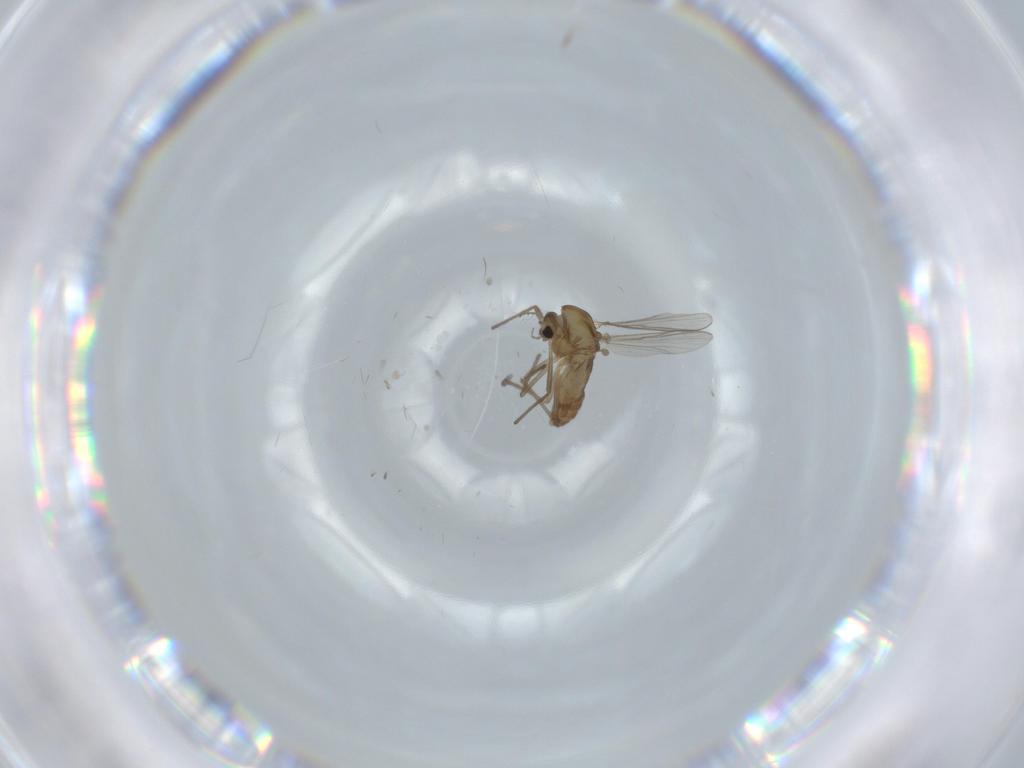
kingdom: Animalia
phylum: Arthropoda
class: Insecta
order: Diptera
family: Chironomidae
